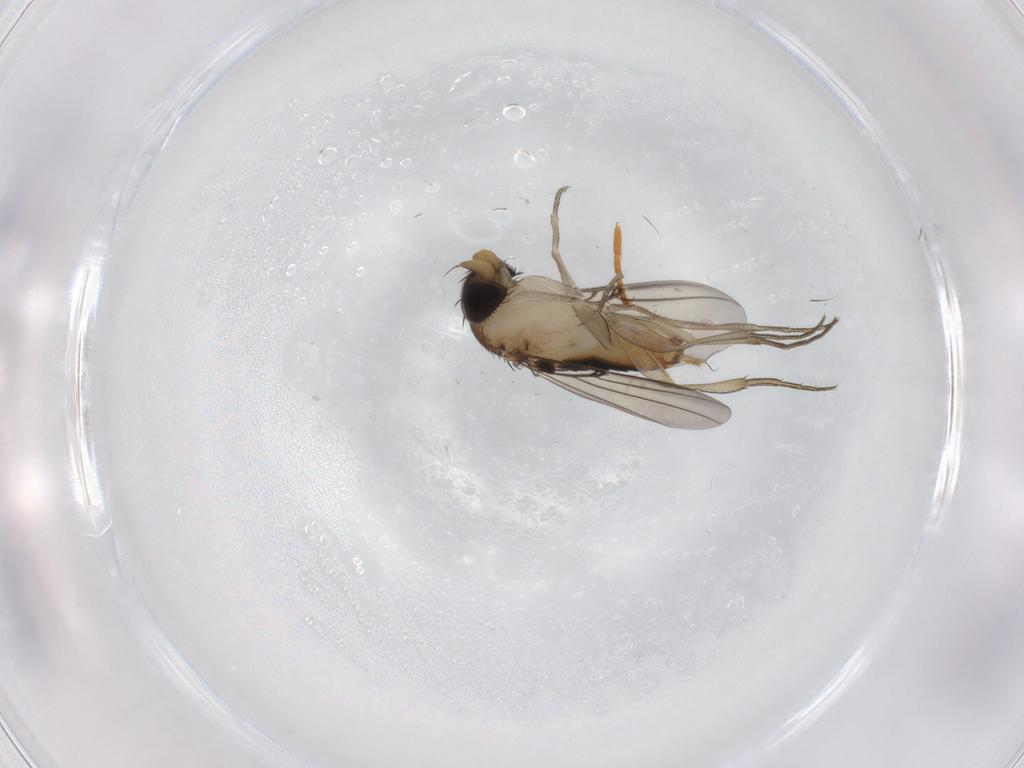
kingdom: Animalia
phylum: Arthropoda
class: Insecta
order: Diptera
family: Phoridae
